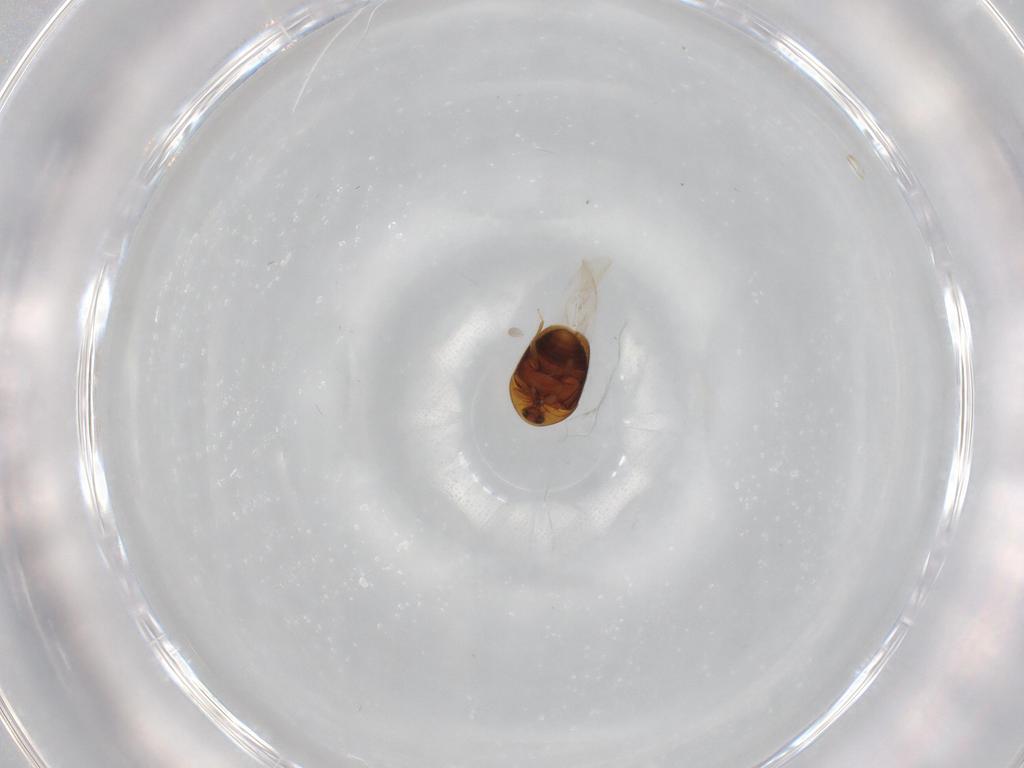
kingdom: Animalia
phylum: Arthropoda
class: Insecta
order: Coleoptera
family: Corylophidae
